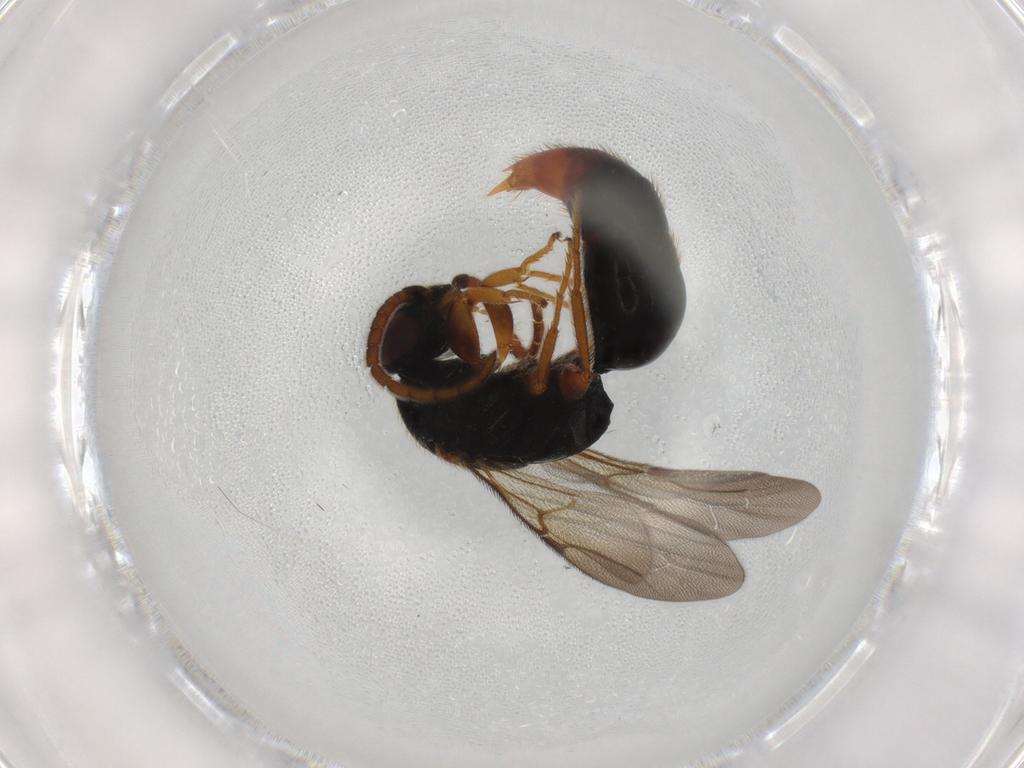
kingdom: Animalia
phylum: Arthropoda
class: Insecta
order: Hymenoptera
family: Bethylidae
